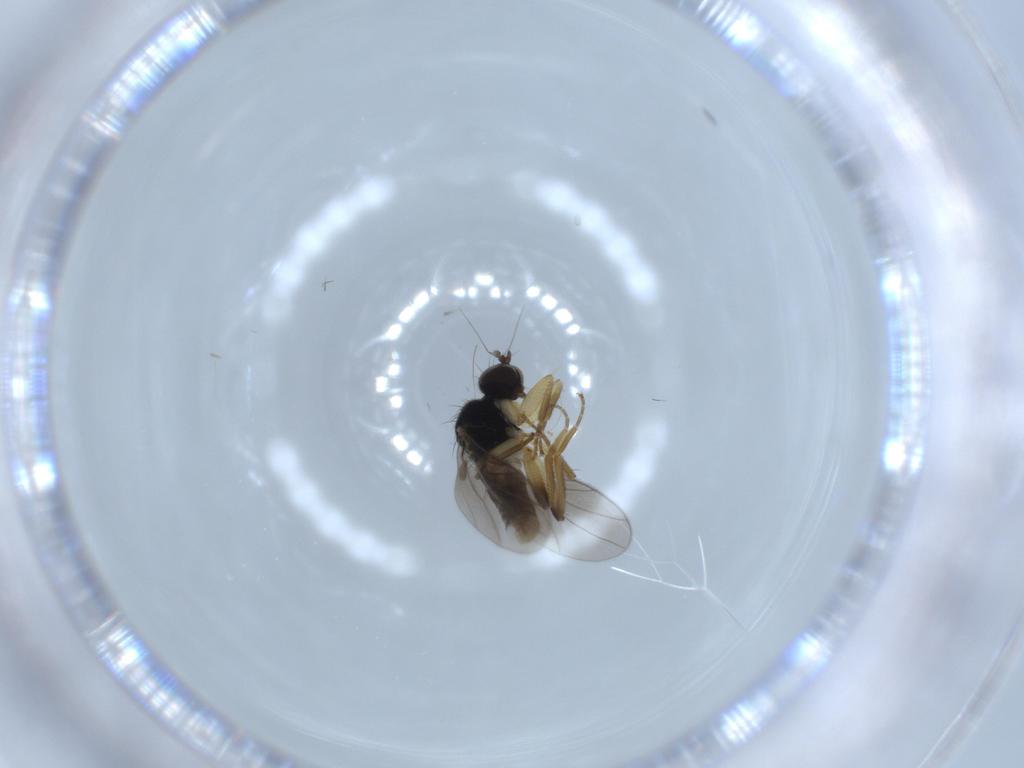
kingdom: Animalia
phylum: Arthropoda
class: Insecta
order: Diptera
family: Hybotidae
